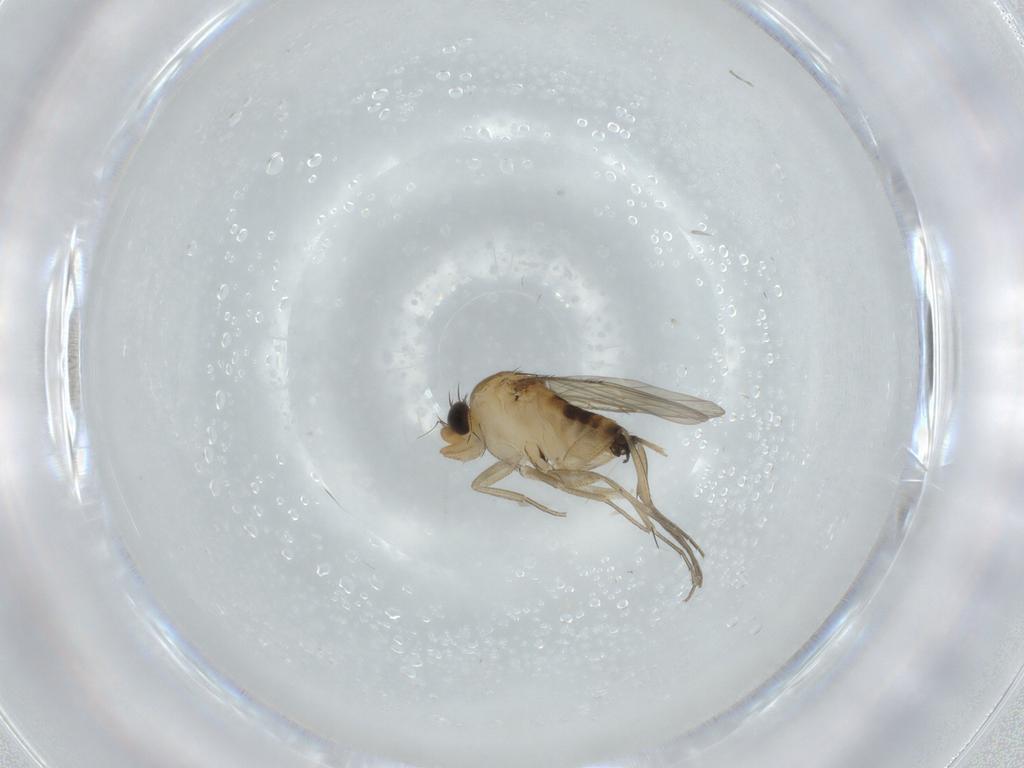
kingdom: Animalia
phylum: Arthropoda
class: Insecta
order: Diptera
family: Phoridae
